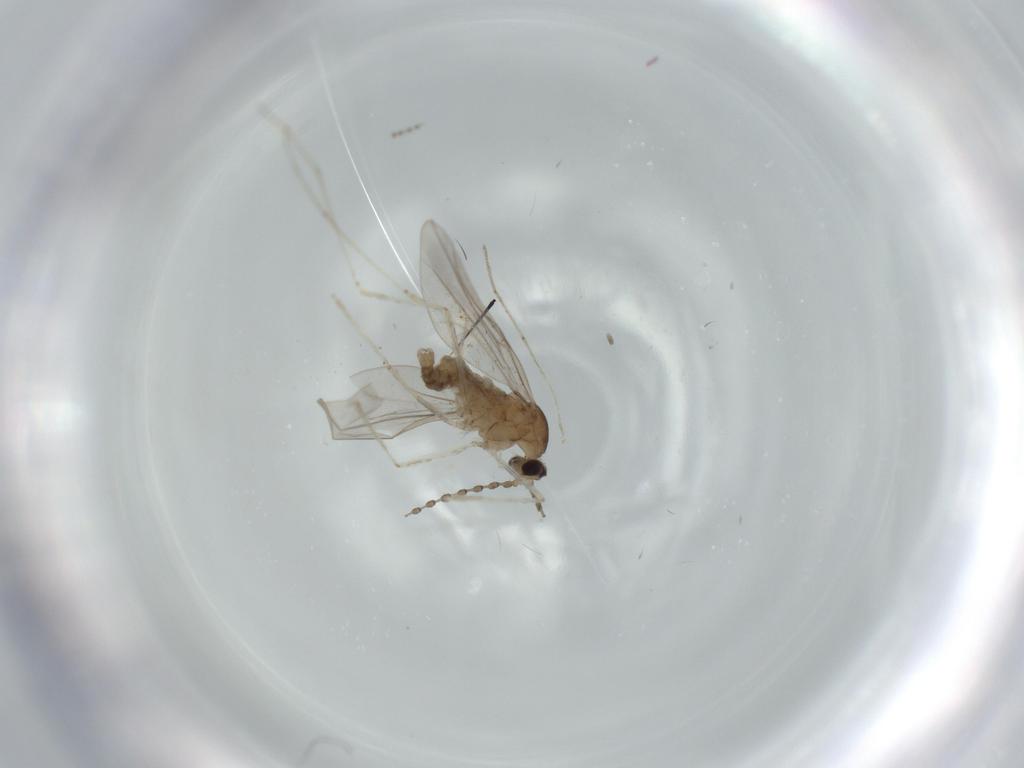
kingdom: Animalia
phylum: Arthropoda
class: Insecta
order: Diptera
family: Cecidomyiidae
